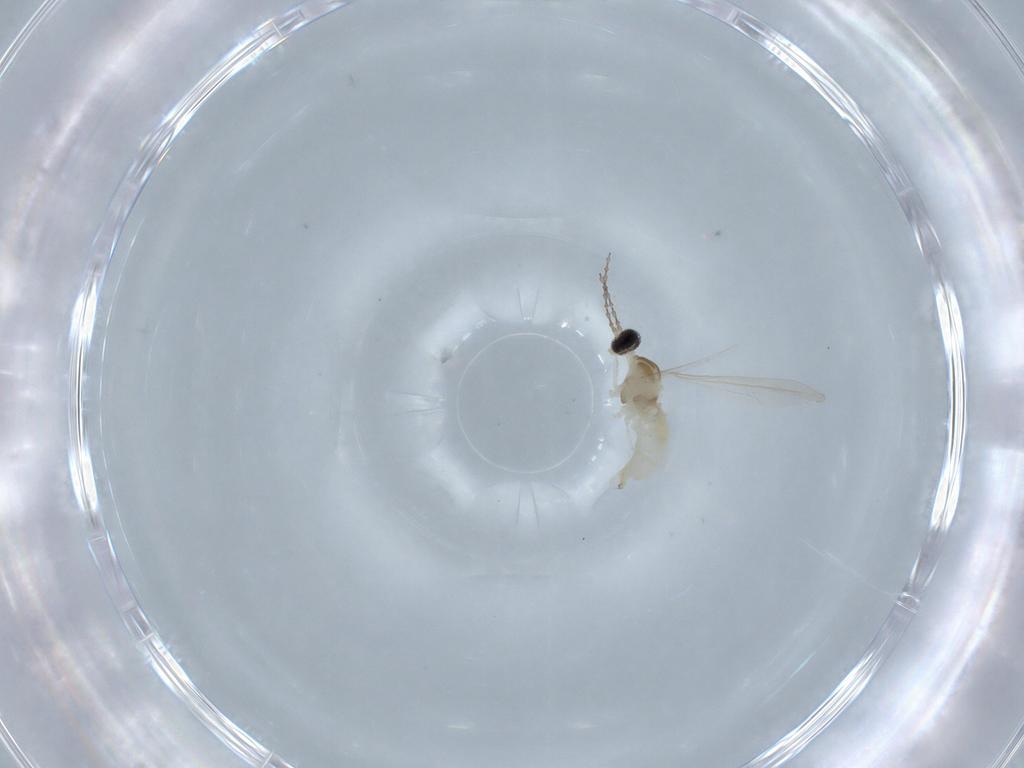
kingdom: Animalia
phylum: Arthropoda
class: Insecta
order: Diptera
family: Cecidomyiidae
